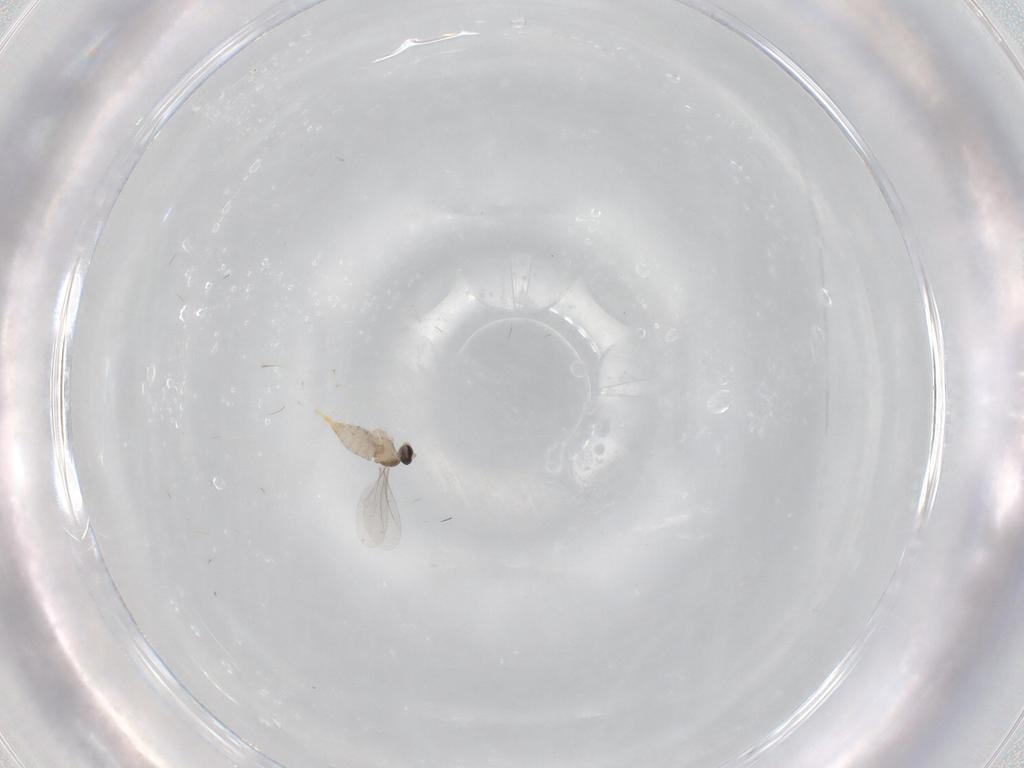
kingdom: Animalia
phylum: Arthropoda
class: Insecta
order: Diptera
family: Cecidomyiidae
